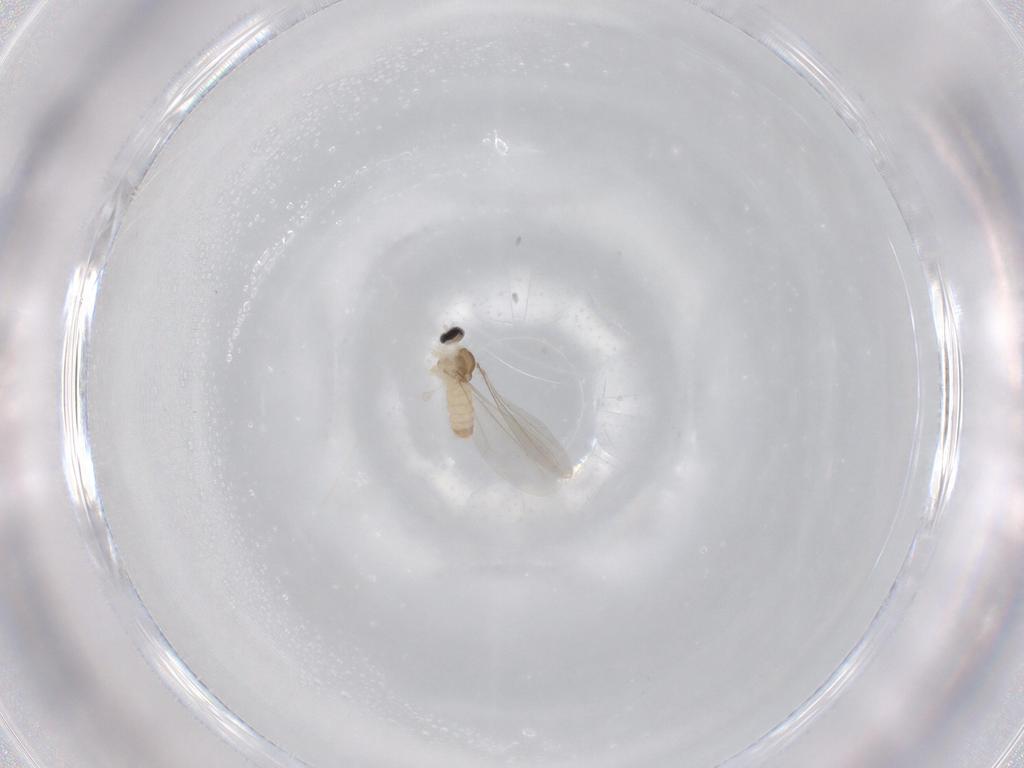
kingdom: Animalia
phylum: Arthropoda
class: Insecta
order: Diptera
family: Cecidomyiidae
